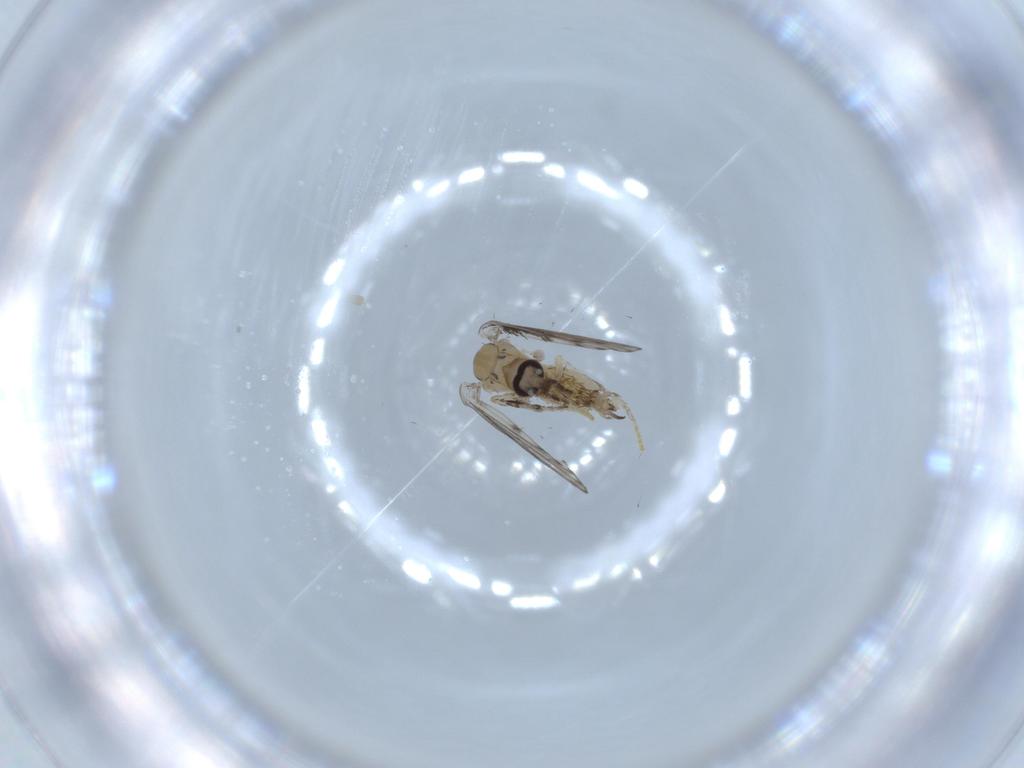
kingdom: Animalia
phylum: Arthropoda
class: Insecta
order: Diptera
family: Psychodidae
